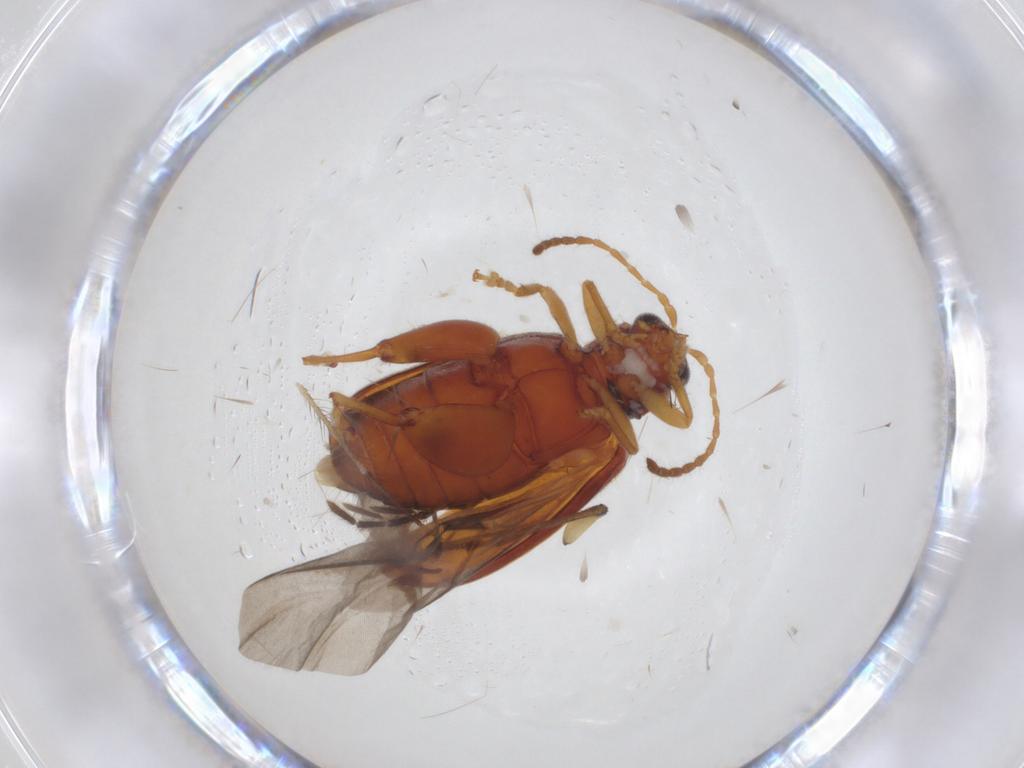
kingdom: Animalia
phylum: Arthropoda
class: Insecta
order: Coleoptera
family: Chrysomelidae
